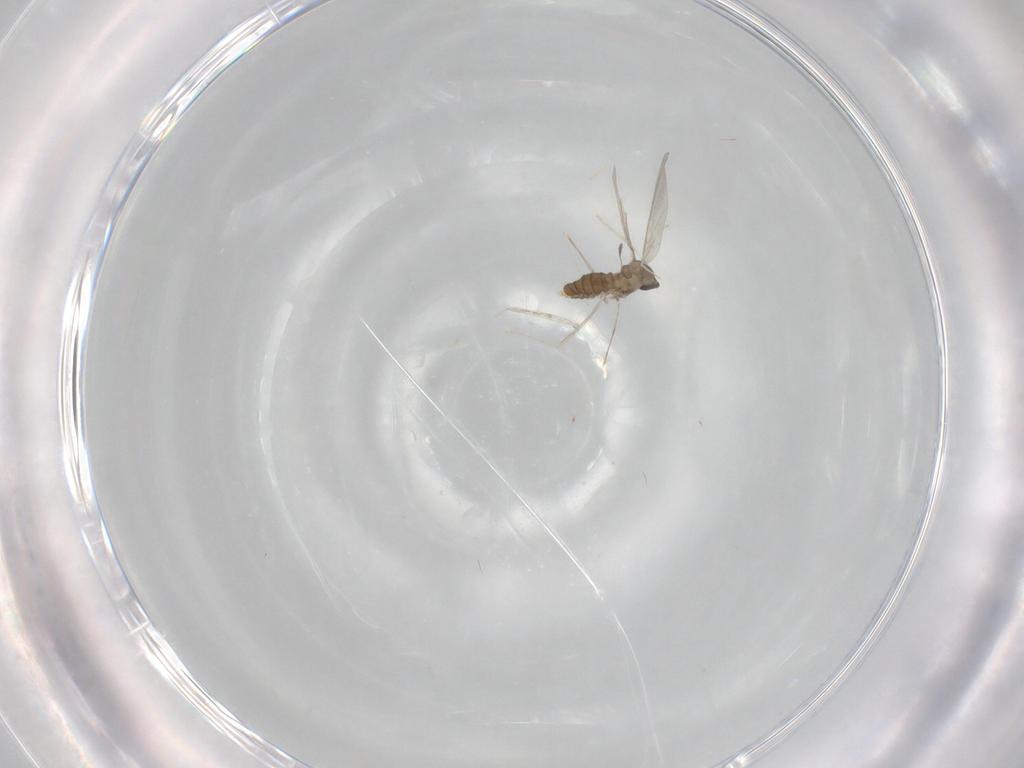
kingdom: Animalia
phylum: Arthropoda
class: Insecta
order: Diptera
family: Cecidomyiidae
